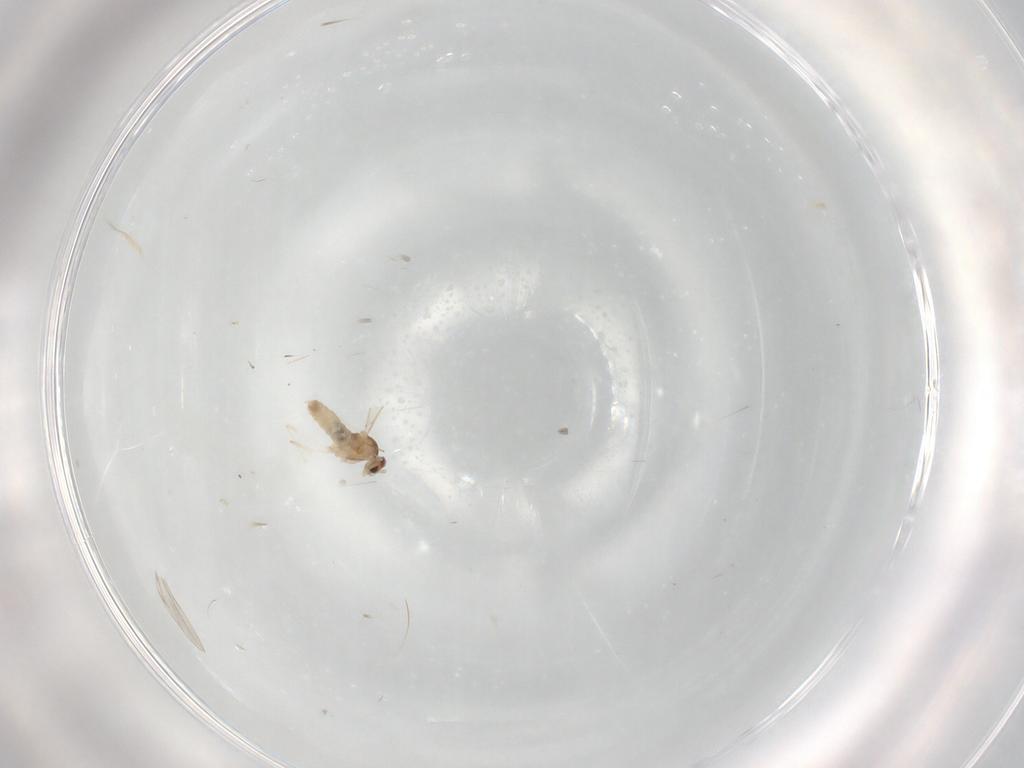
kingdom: Animalia
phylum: Arthropoda
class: Insecta
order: Diptera
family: Cecidomyiidae
